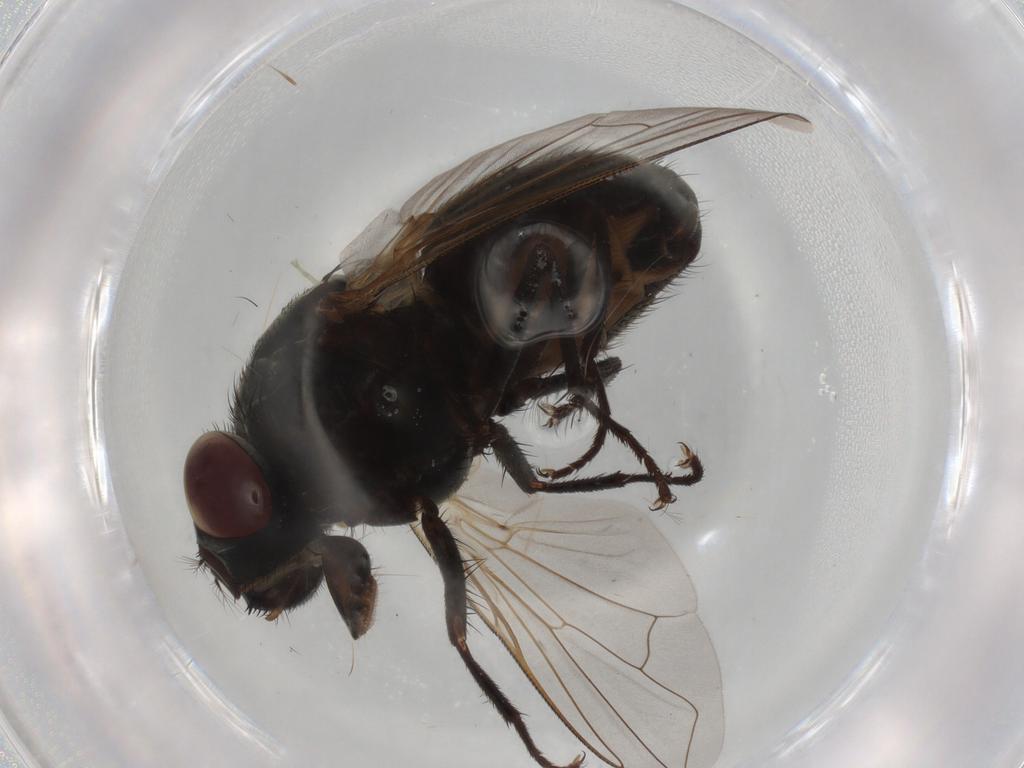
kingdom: Animalia
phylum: Arthropoda
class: Insecta
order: Diptera
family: Cecidomyiidae
